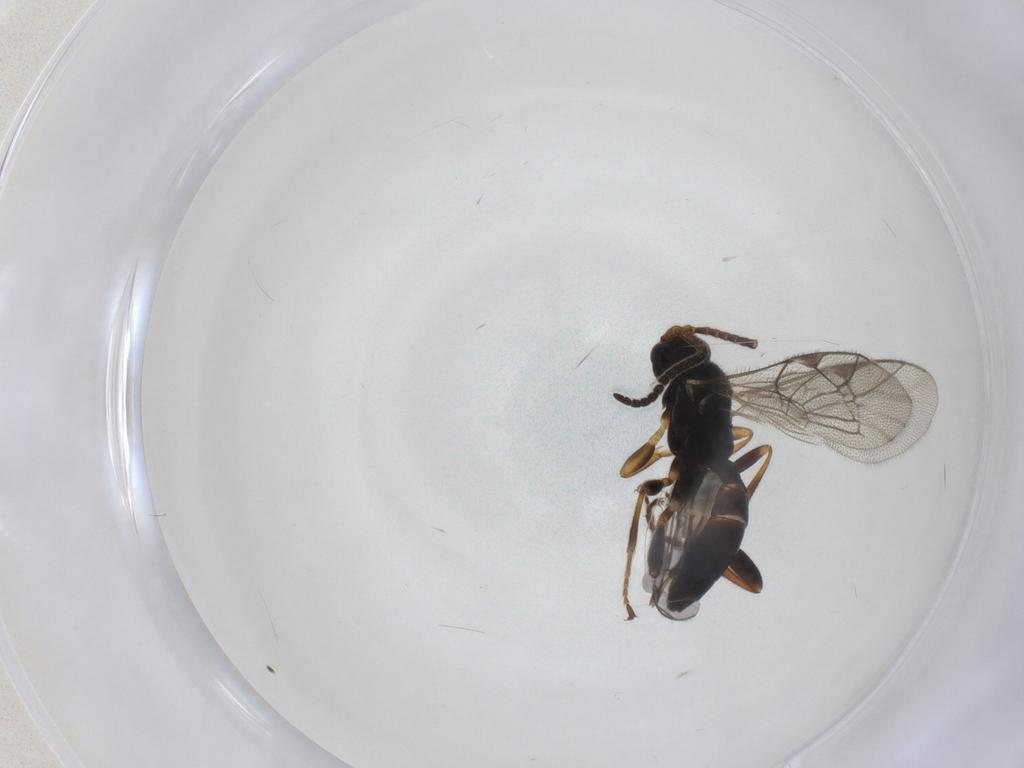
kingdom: Animalia
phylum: Arthropoda
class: Insecta
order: Hymenoptera
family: Ichneumonidae
